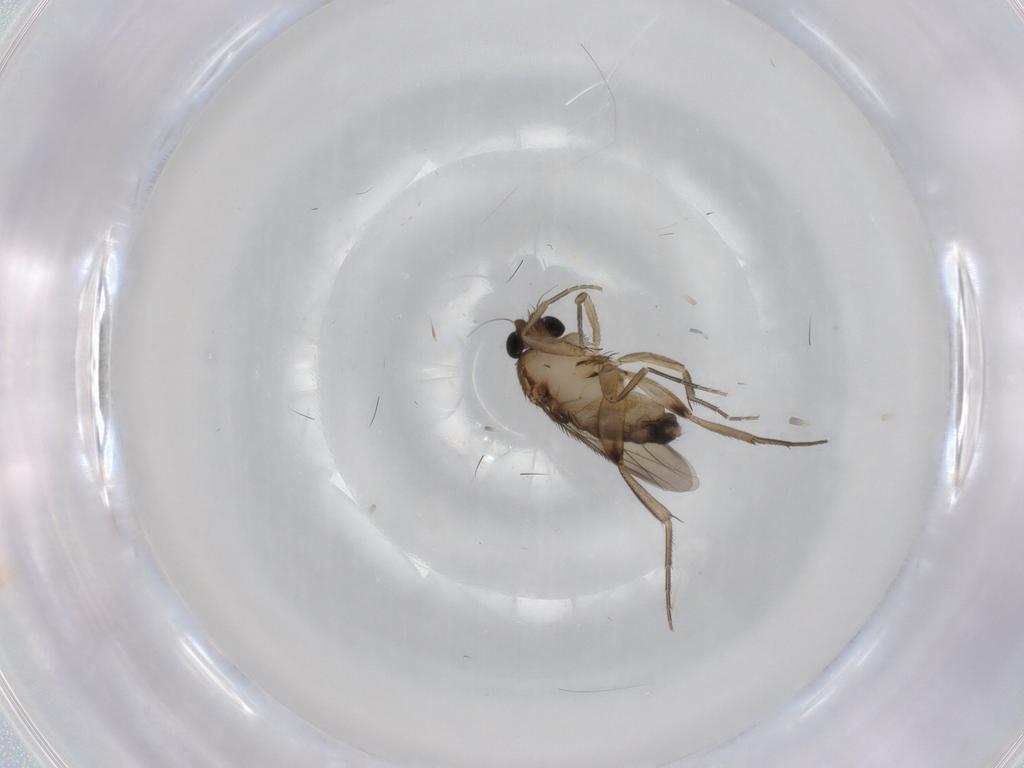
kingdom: Animalia
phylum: Arthropoda
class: Insecta
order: Diptera
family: Phoridae
